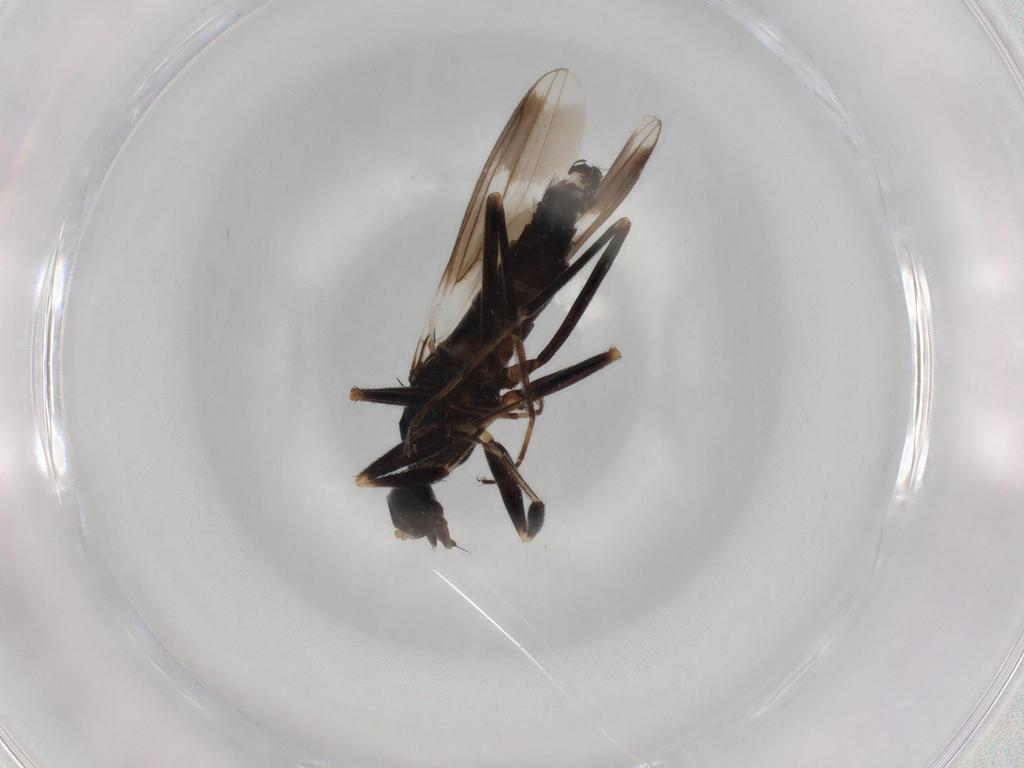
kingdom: Animalia
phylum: Arthropoda
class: Insecta
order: Diptera
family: Hybotidae
